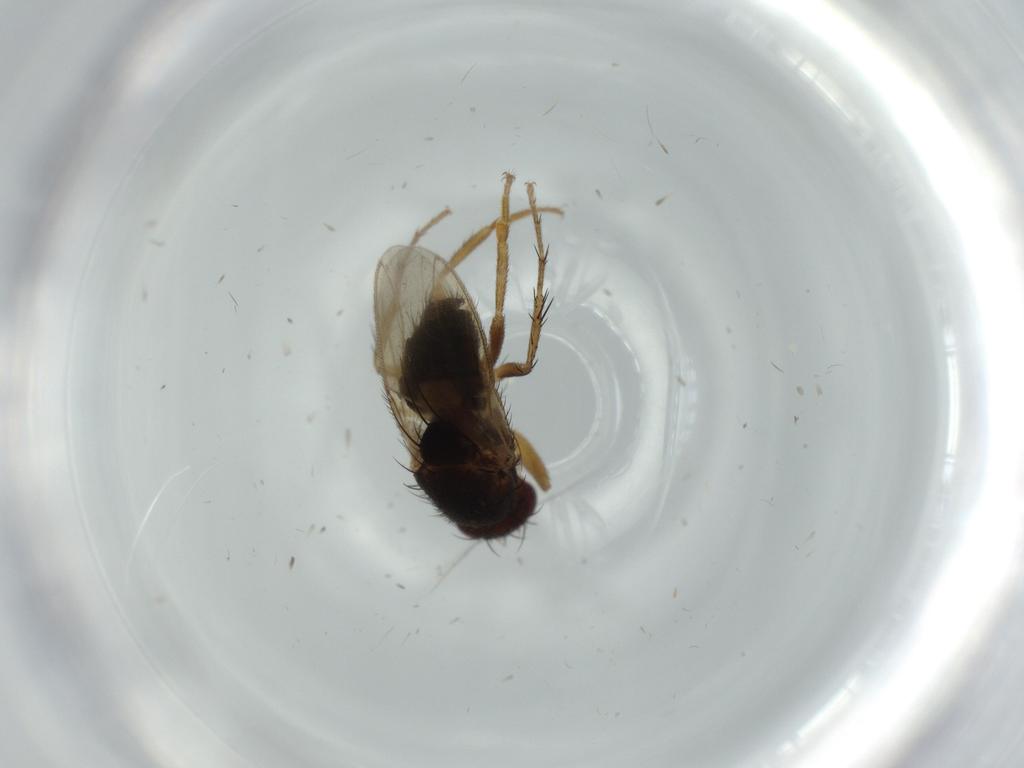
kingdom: Animalia
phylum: Arthropoda
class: Insecta
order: Diptera
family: Sphaeroceridae
